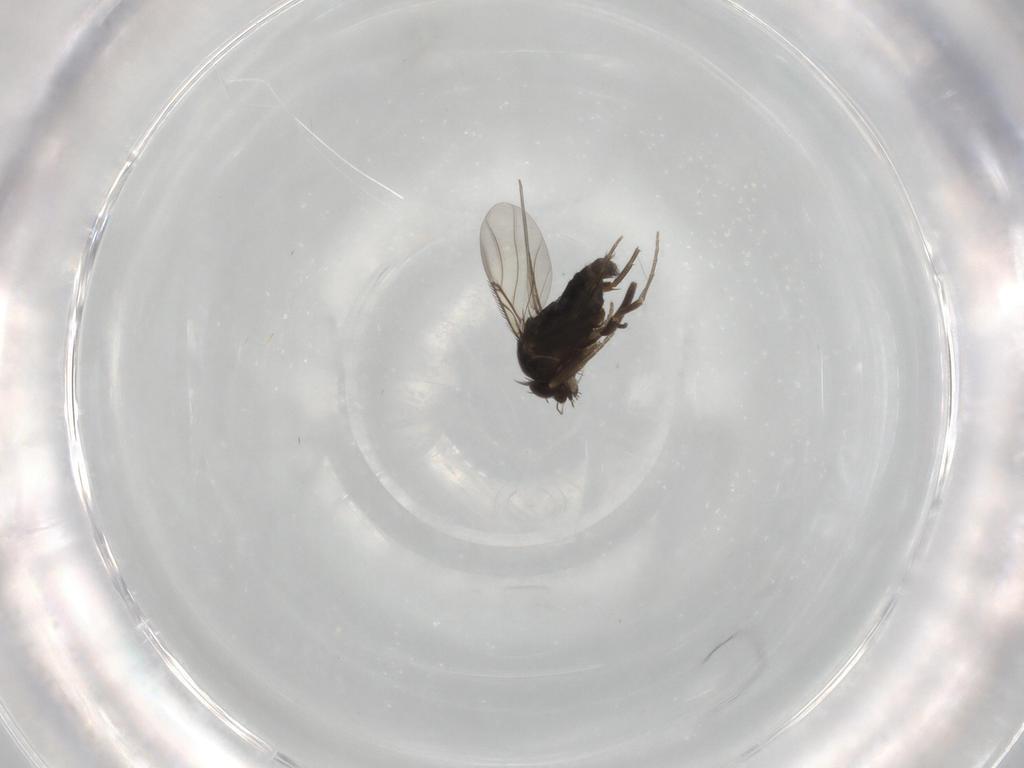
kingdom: Animalia
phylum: Arthropoda
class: Insecta
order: Diptera
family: Phoridae
